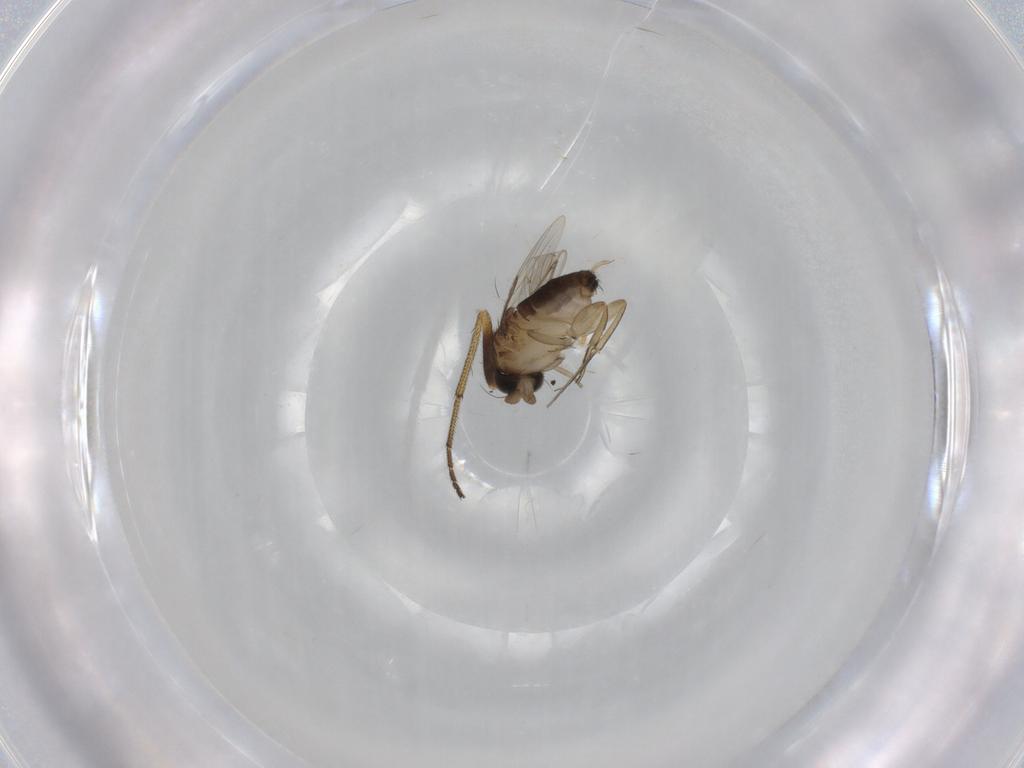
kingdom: Animalia
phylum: Arthropoda
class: Insecta
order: Diptera
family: Phoridae
